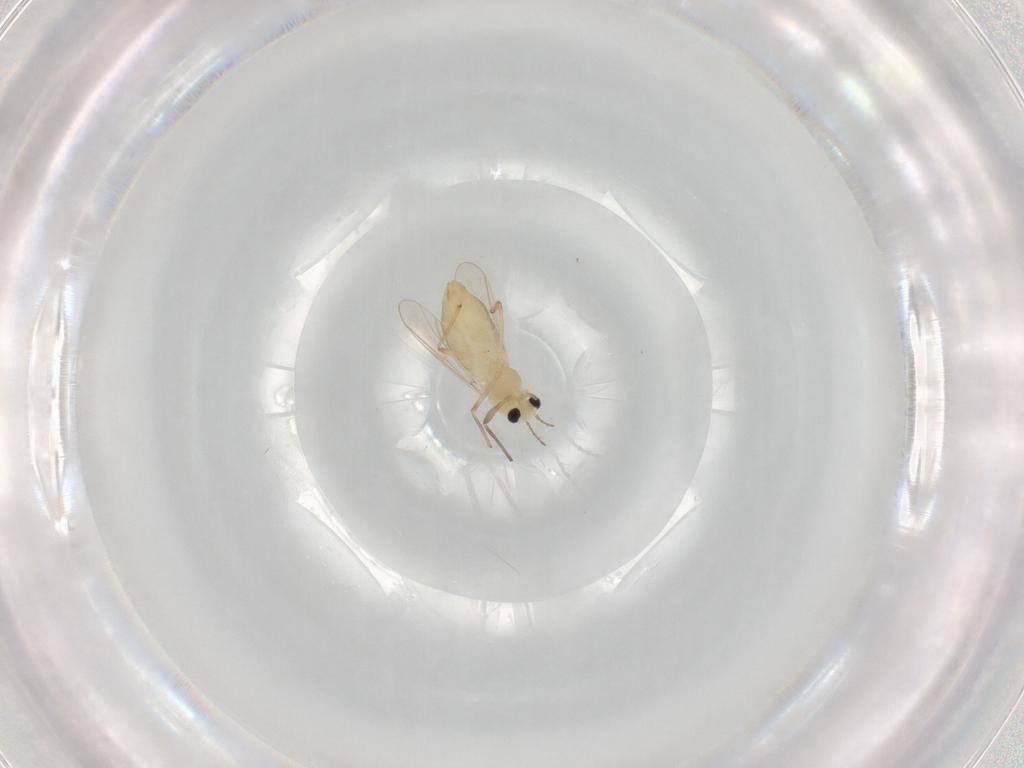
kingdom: Animalia
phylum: Arthropoda
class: Insecta
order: Diptera
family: Chironomidae
